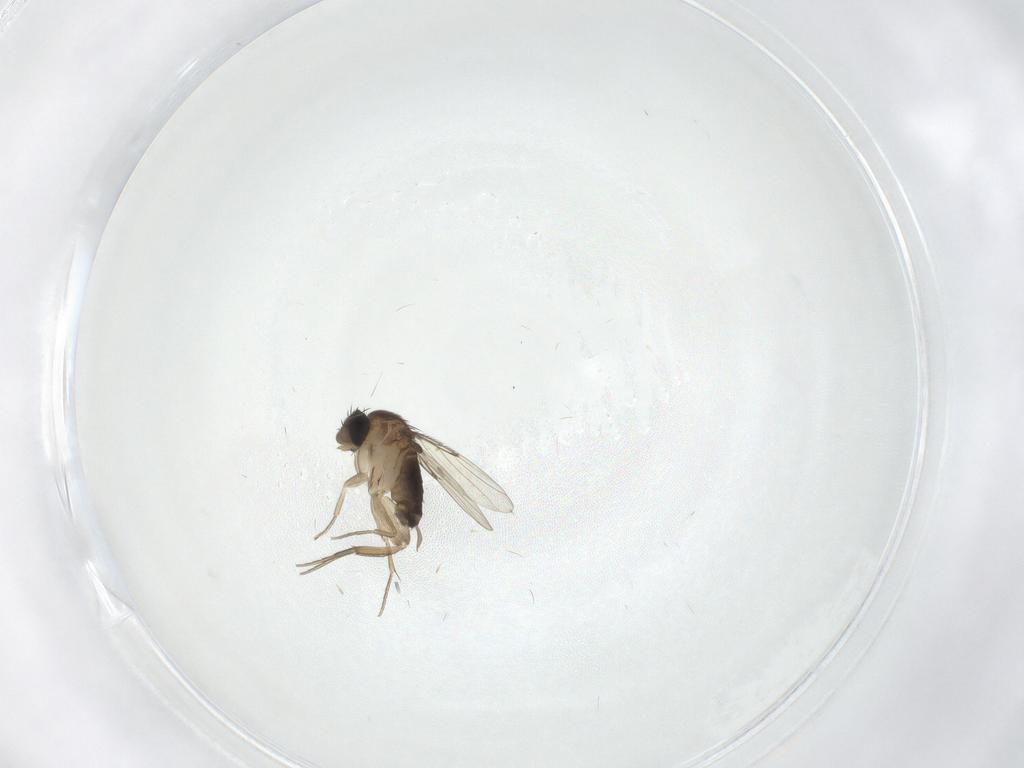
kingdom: Animalia
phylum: Arthropoda
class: Insecta
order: Diptera
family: Phoridae
